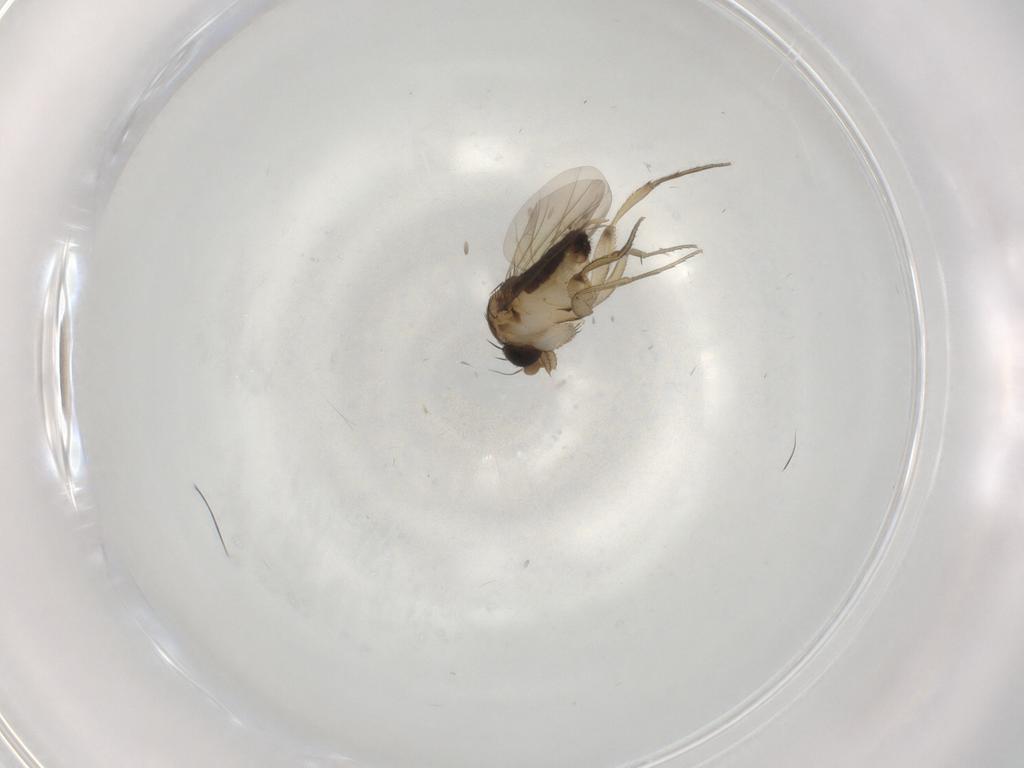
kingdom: Animalia
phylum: Arthropoda
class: Insecta
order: Diptera
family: Phoridae
